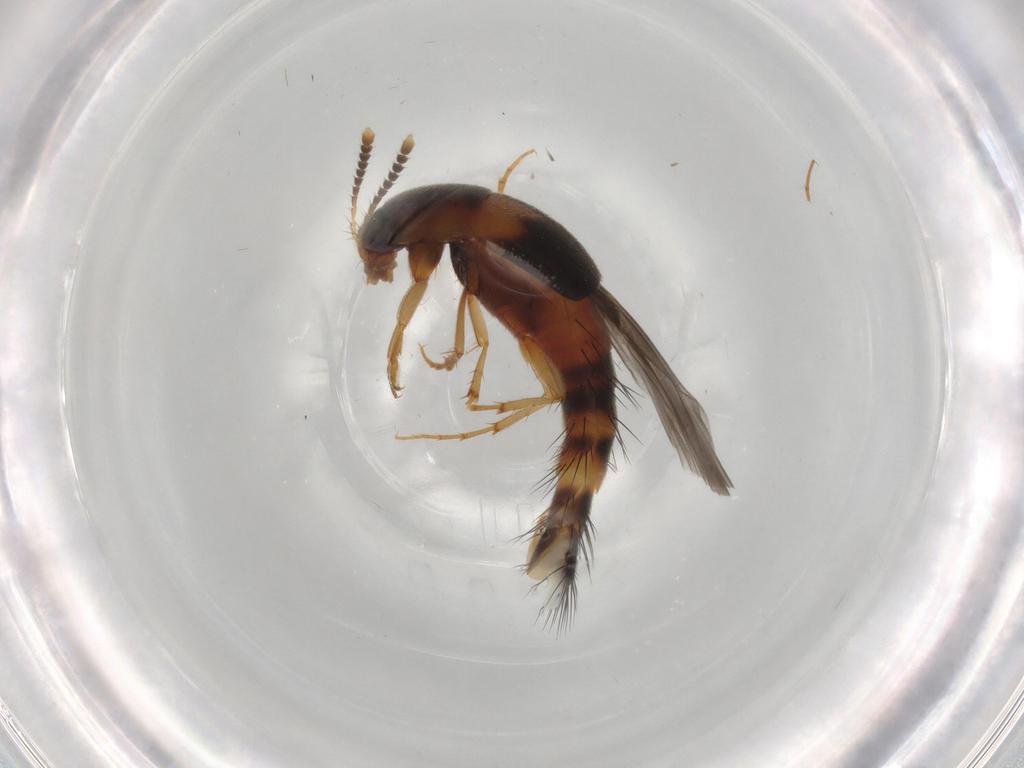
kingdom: Animalia
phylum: Arthropoda
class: Insecta
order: Coleoptera
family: Staphylinidae
